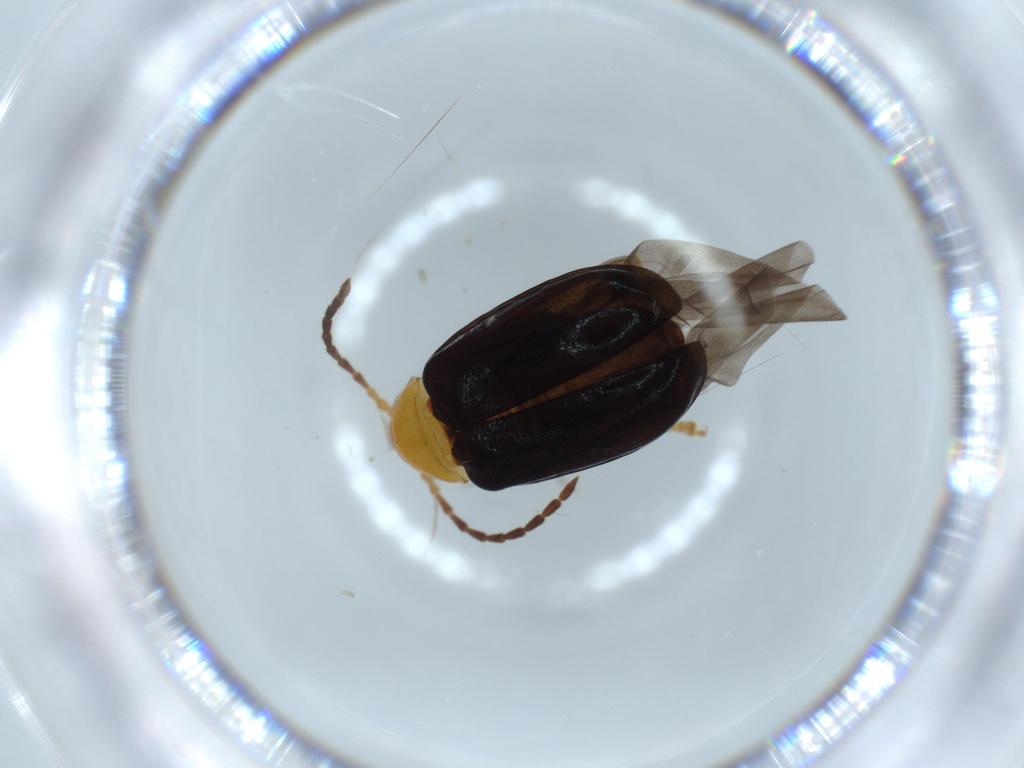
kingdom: Animalia
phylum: Arthropoda
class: Insecta
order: Coleoptera
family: Chrysomelidae
